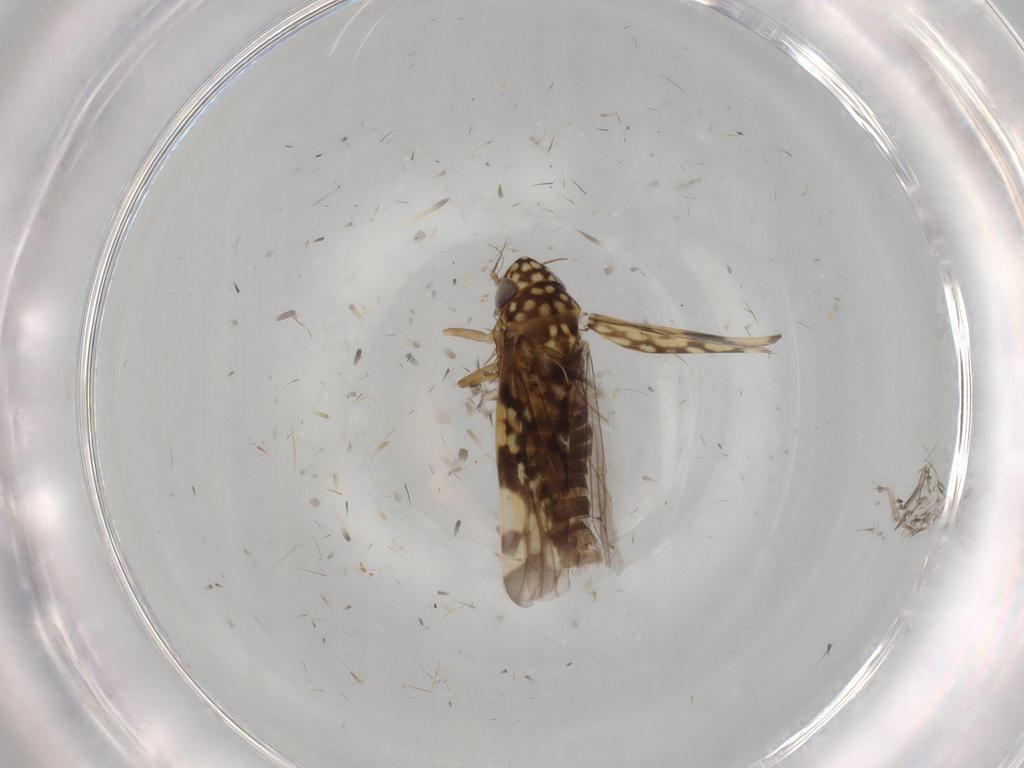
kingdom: Animalia
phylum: Arthropoda
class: Insecta
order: Hemiptera
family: Cicadellidae
